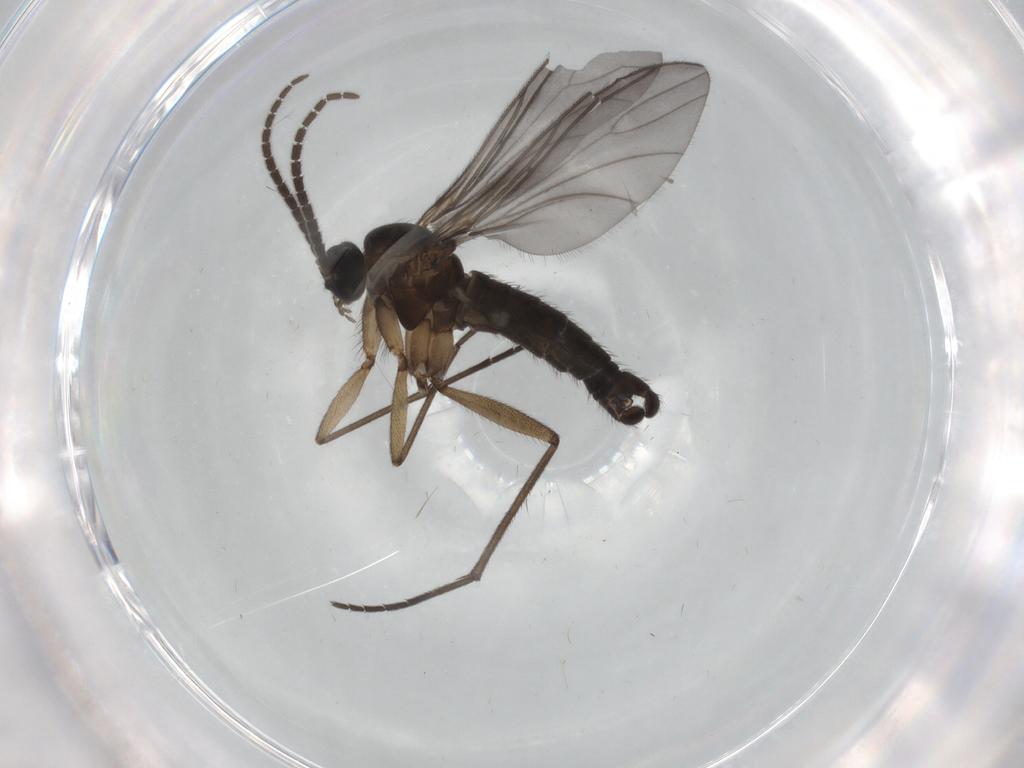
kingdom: Animalia
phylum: Arthropoda
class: Insecta
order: Diptera
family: Sciaridae
